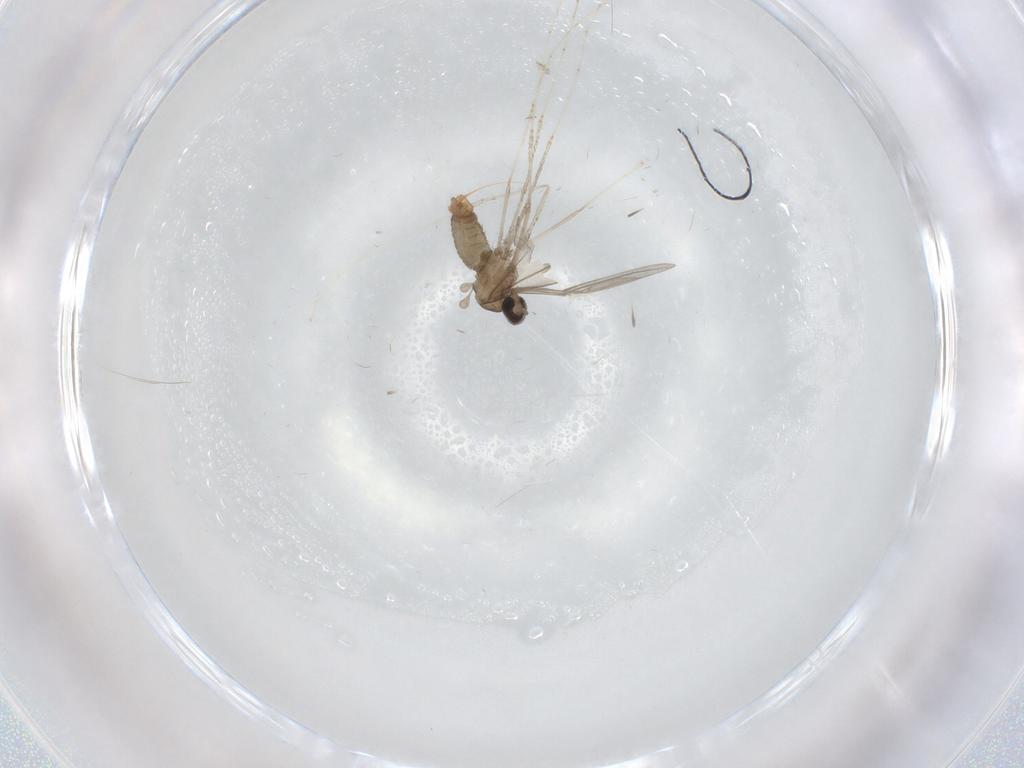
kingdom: Animalia
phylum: Arthropoda
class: Insecta
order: Diptera
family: Cecidomyiidae
